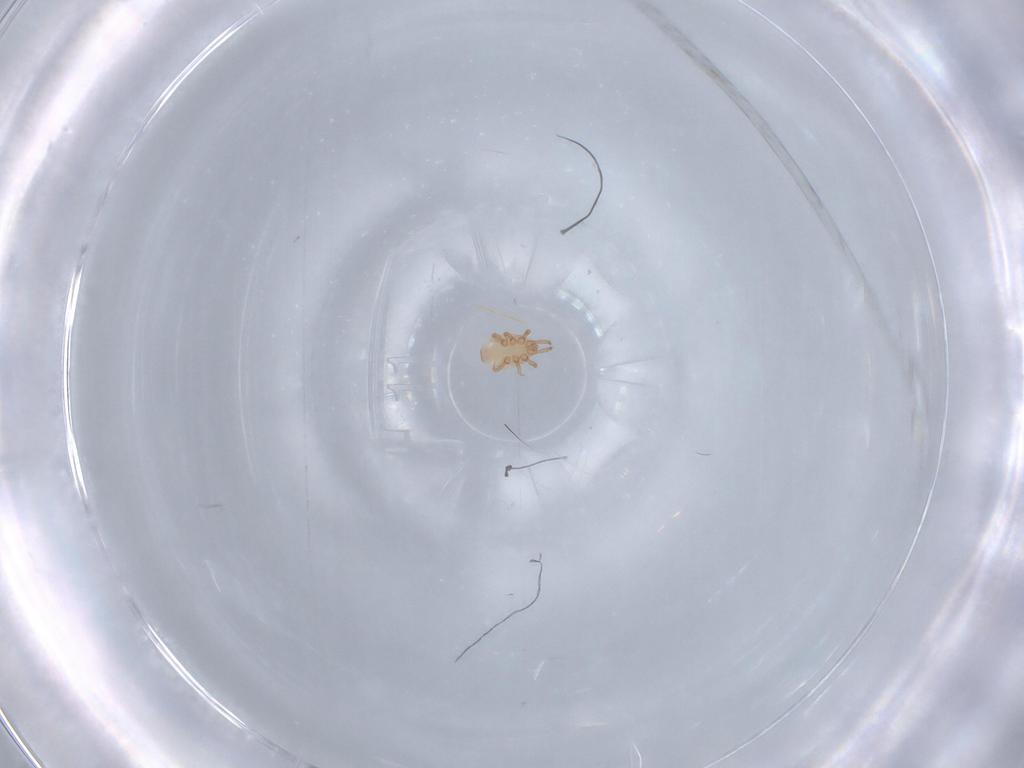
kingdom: Animalia
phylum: Arthropoda
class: Arachnida
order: Mesostigmata
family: Dinychidae
